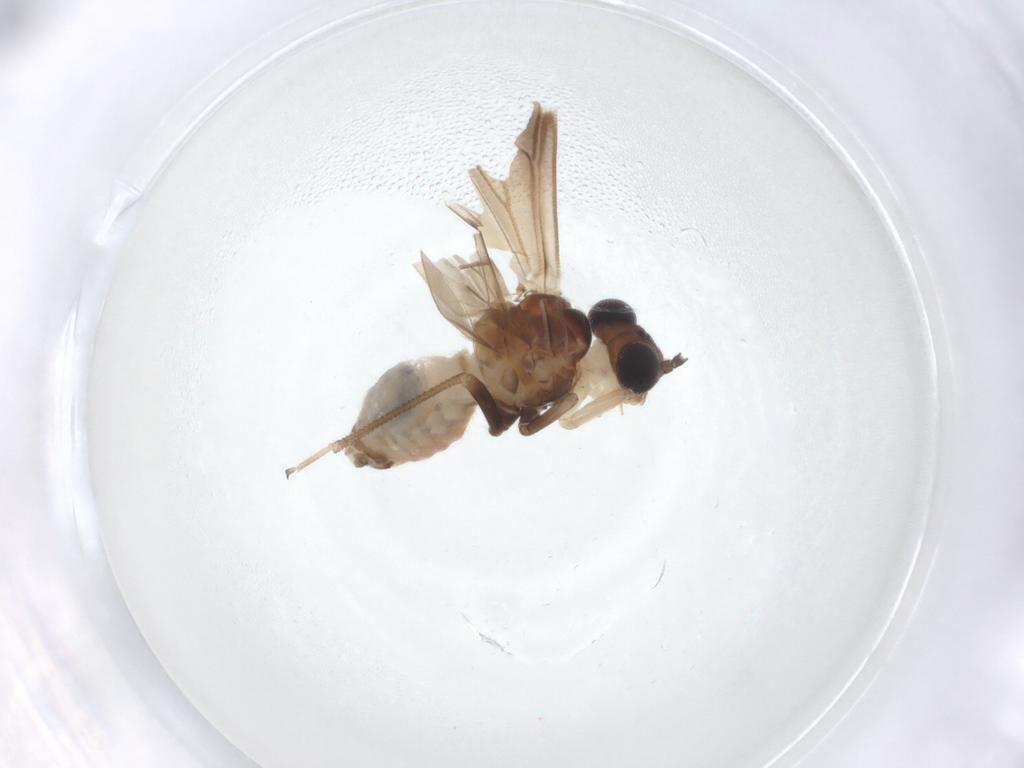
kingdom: Animalia
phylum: Arthropoda
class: Insecta
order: Psocodea
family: Amphipsocidae
